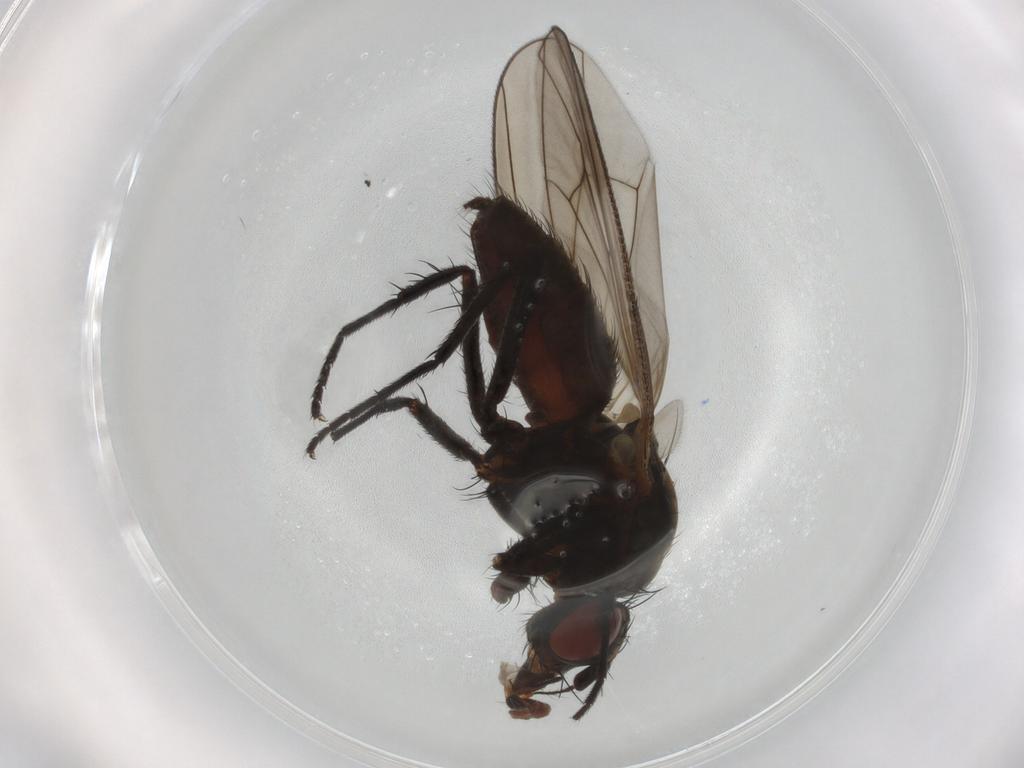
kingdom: Animalia
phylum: Arthropoda
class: Insecta
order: Diptera
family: Anthomyiidae
